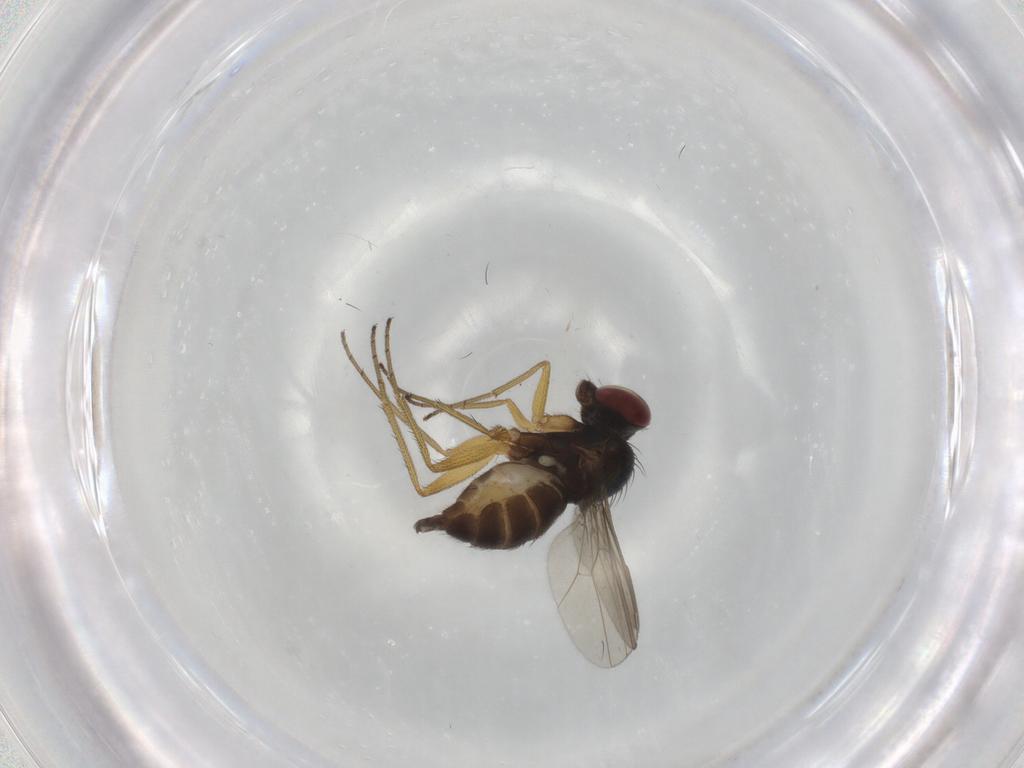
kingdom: Animalia
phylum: Arthropoda
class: Insecta
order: Diptera
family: Dolichopodidae
